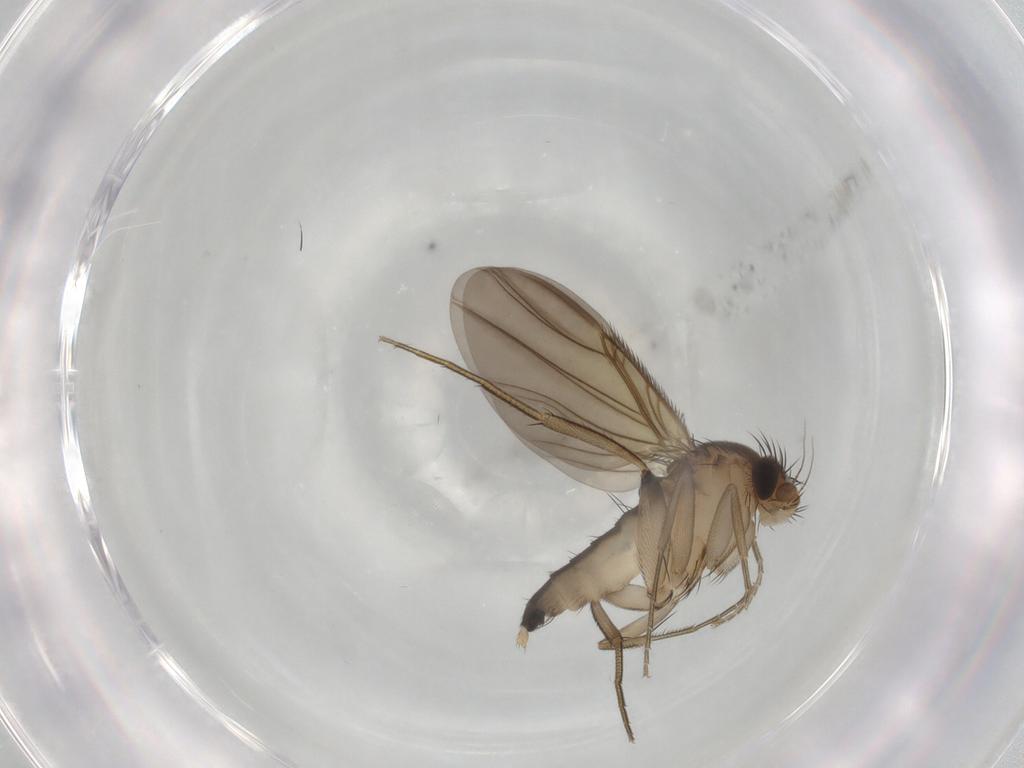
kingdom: Animalia
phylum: Arthropoda
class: Insecta
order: Diptera
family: Phoridae
